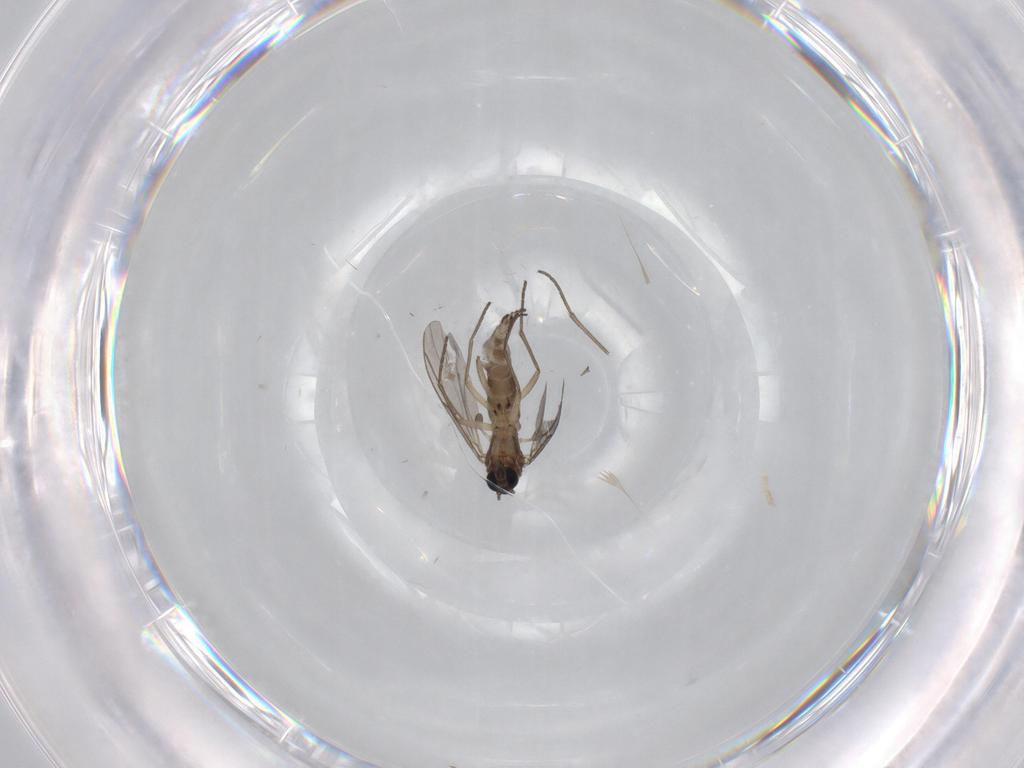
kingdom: Animalia
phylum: Arthropoda
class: Insecta
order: Diptera
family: Sciaridae
